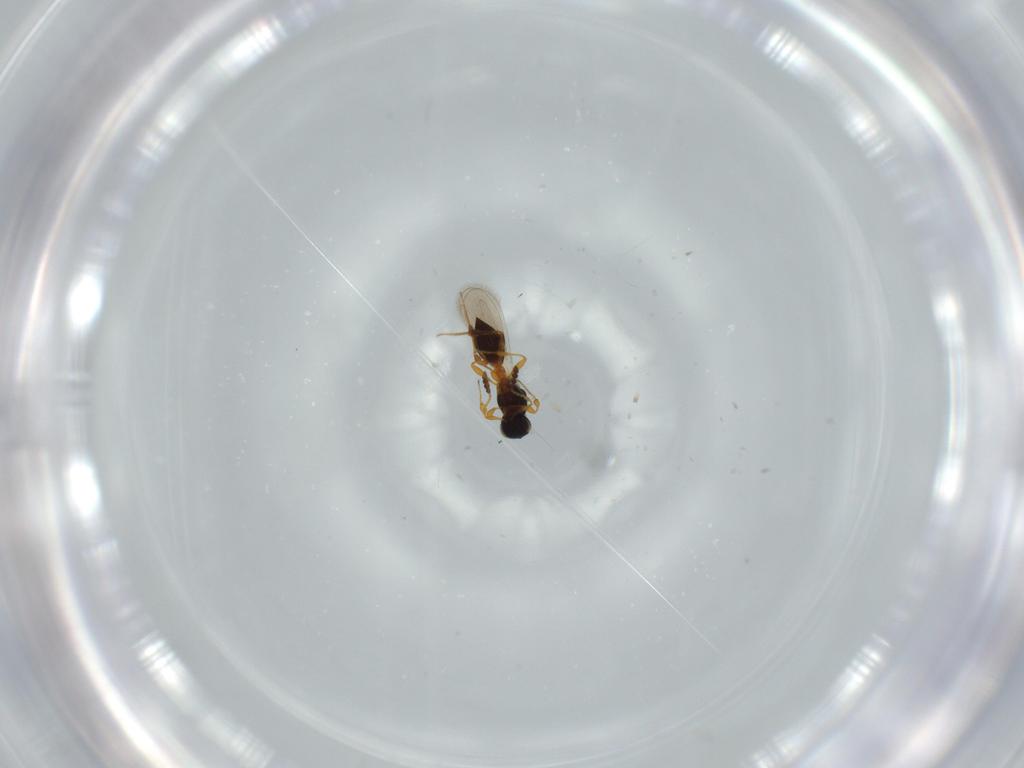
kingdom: Animalia
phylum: Arthropoda
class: Insecta
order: Hymenoptera
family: Platygastridae
